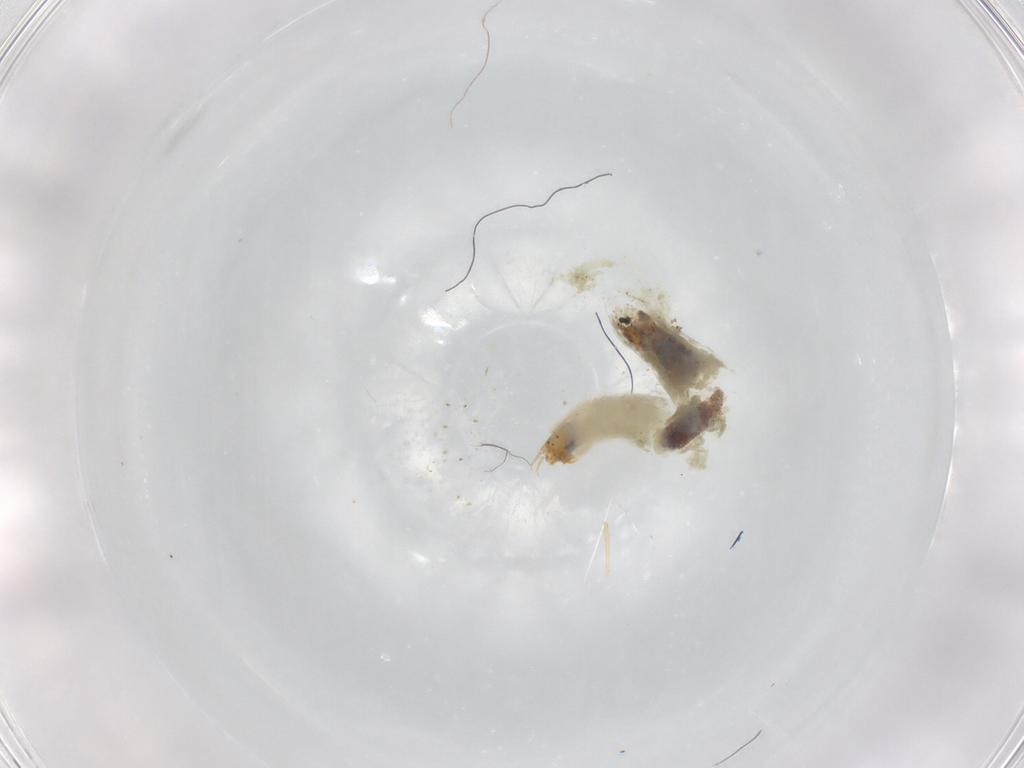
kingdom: Animalia
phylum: Arthropoda
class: Insecta
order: Diptera
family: Chironomidae
